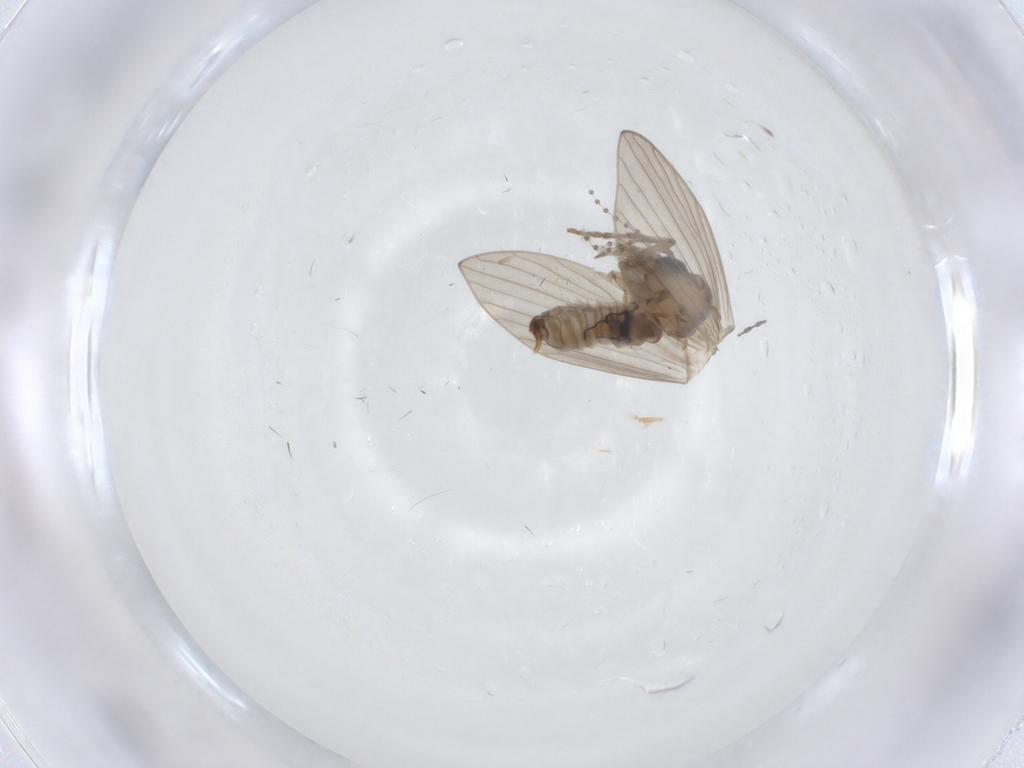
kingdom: Animalia
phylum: Arthropoda
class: Insecta
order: Diptera
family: Psychodidae
